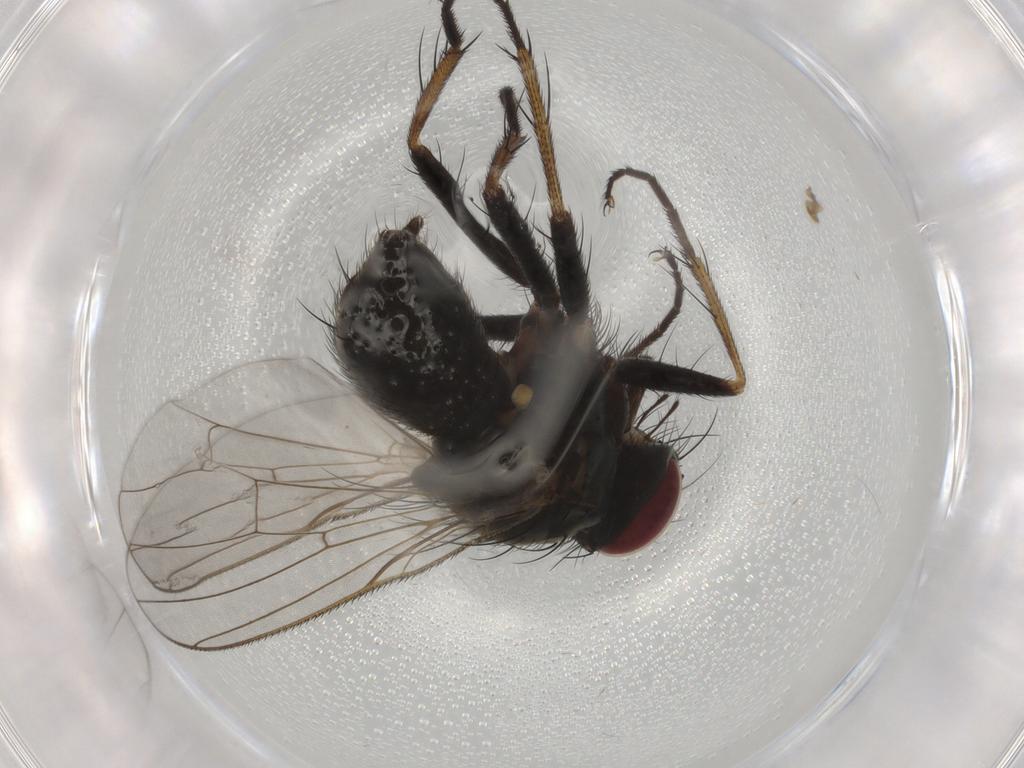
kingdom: Animalia
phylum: Arthropoda
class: Insecta
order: Diptera
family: Cecidomyiidae
